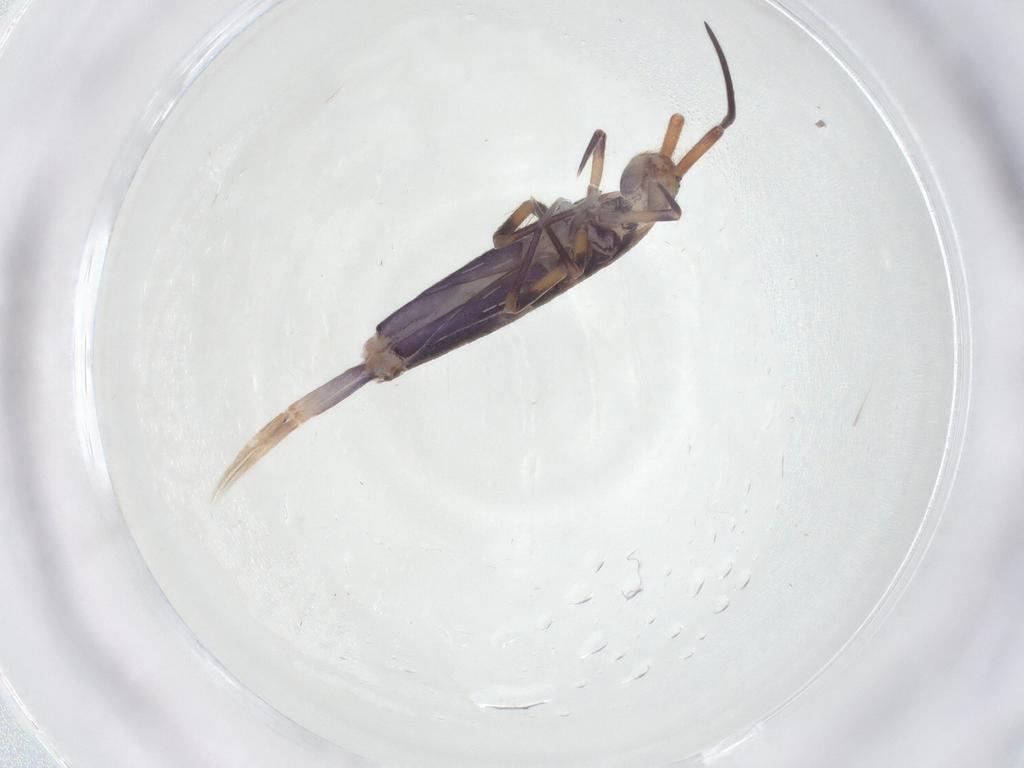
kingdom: Animalia
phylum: Arthropoda
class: Collembola
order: Entomobryomorpha
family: Entomobryidae
